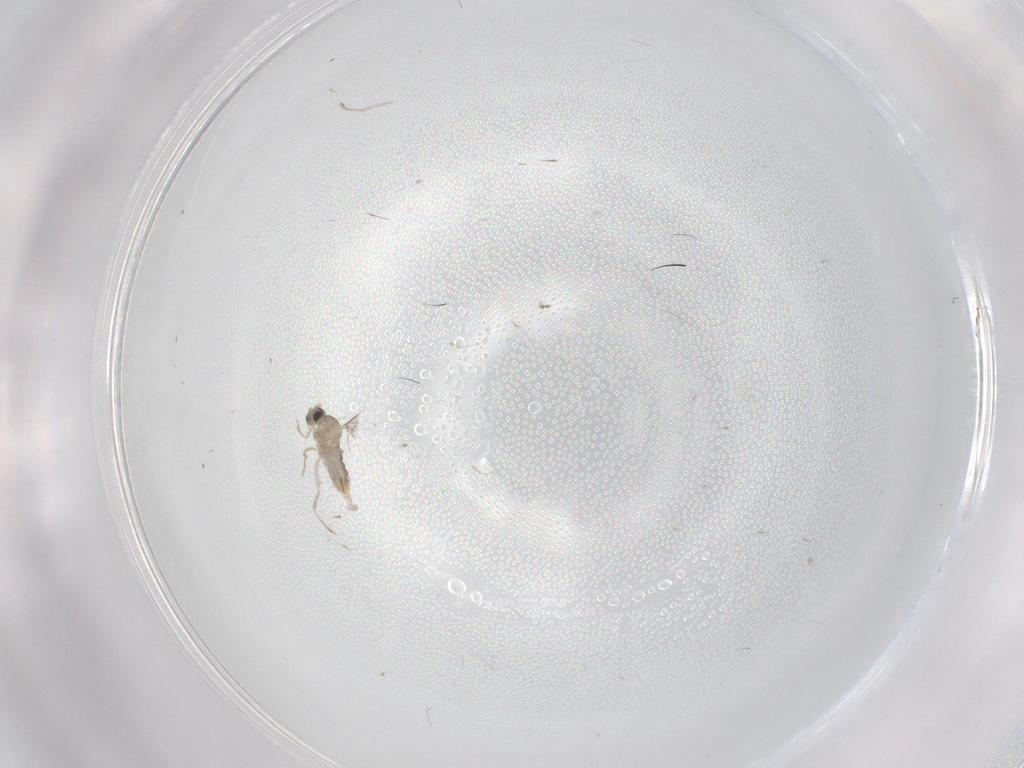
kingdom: Animalia
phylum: Arthropoda
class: Insecta
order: Diptera
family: Cecidomyiidae
